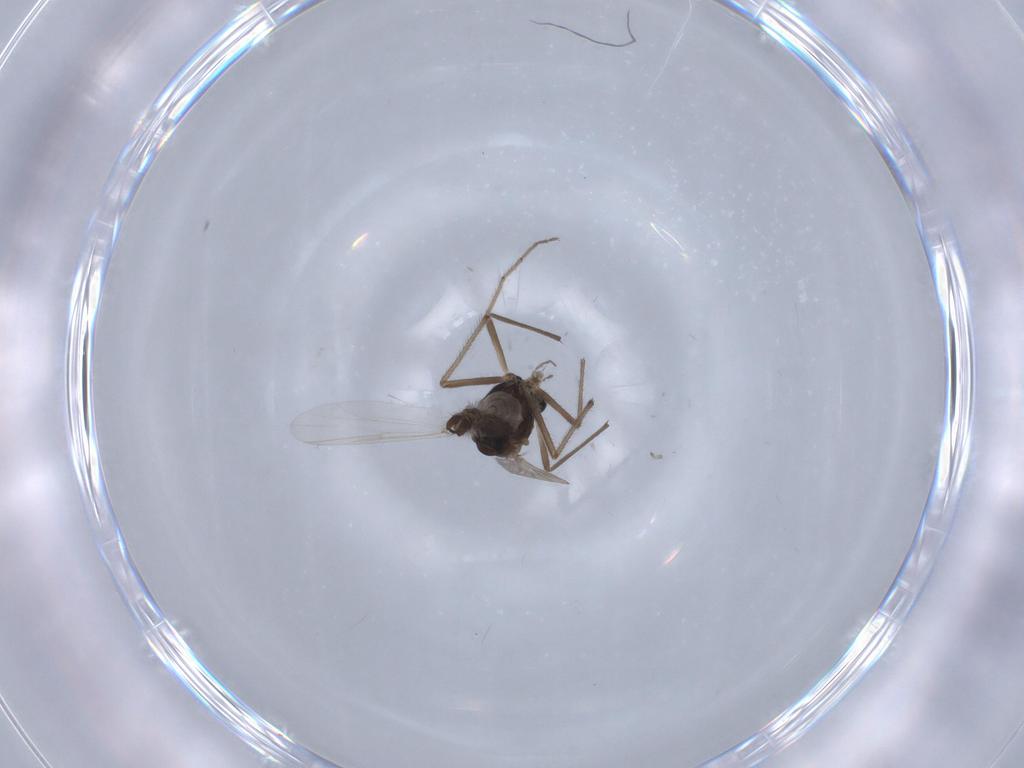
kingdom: Animalia
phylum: Arthropoda
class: Insecta
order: Diptera
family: Chironomidae
